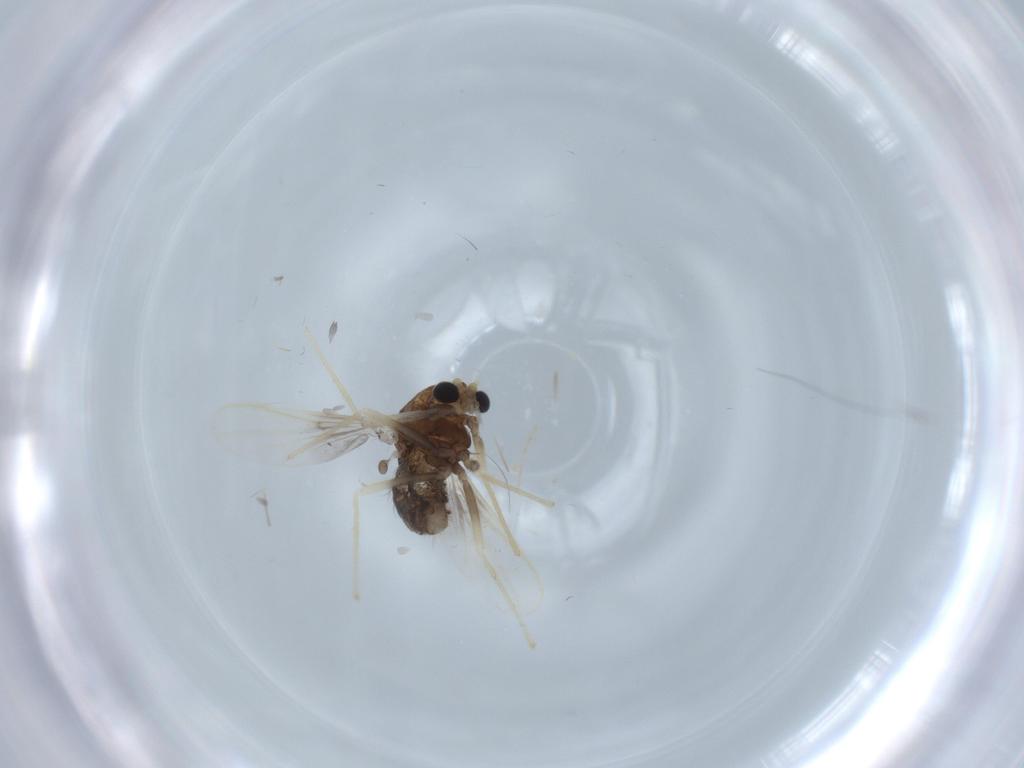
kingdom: Animalia
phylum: Arthropoda
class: Insecta
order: Diptera
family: Chironomidae
